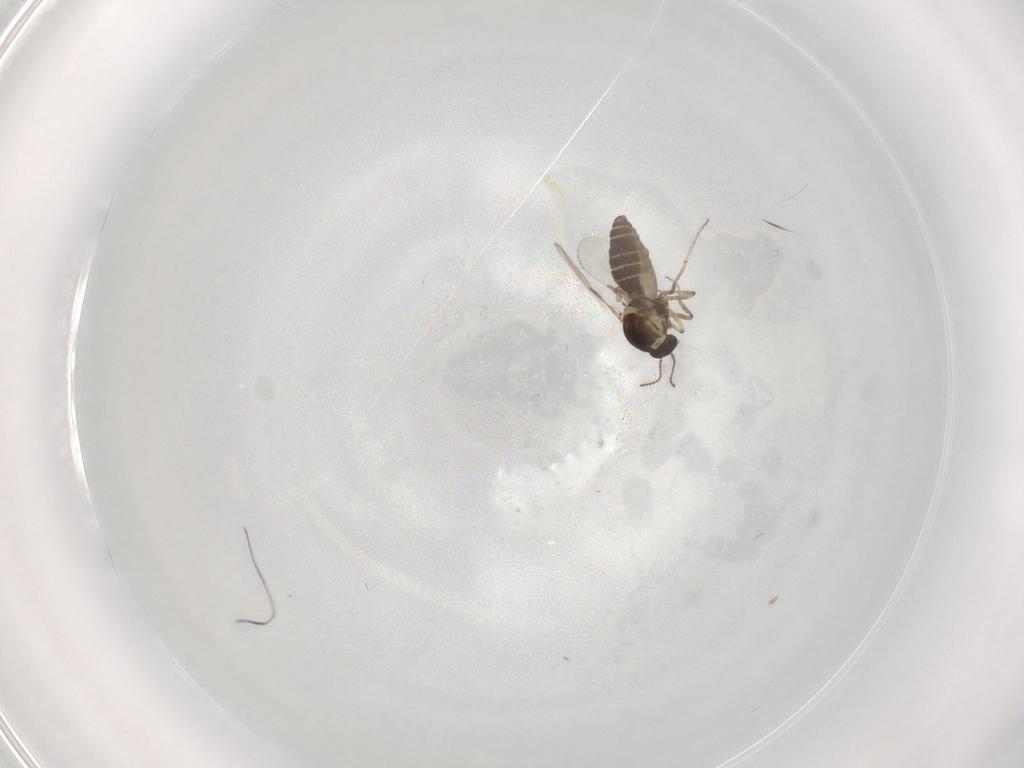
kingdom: Animalia
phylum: Arthropoda
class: Insecta
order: Diptera
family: Ceratopogonidae
